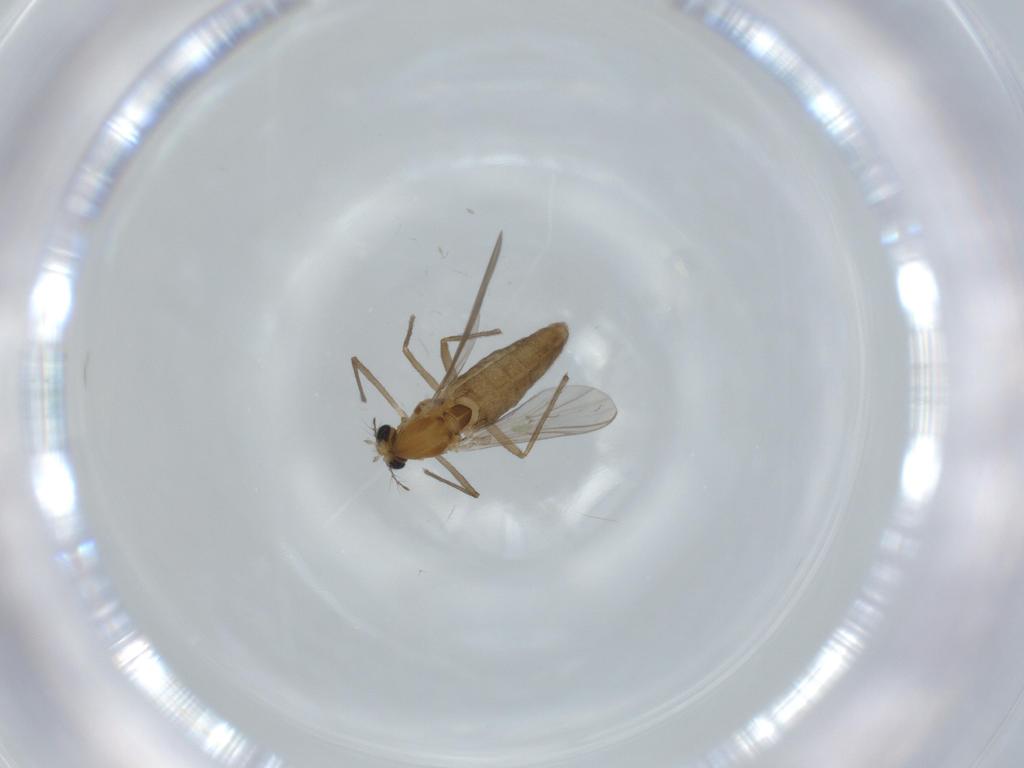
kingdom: Animalia
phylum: Arthropoda
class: Insecta
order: Diptera
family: Chironomidae
